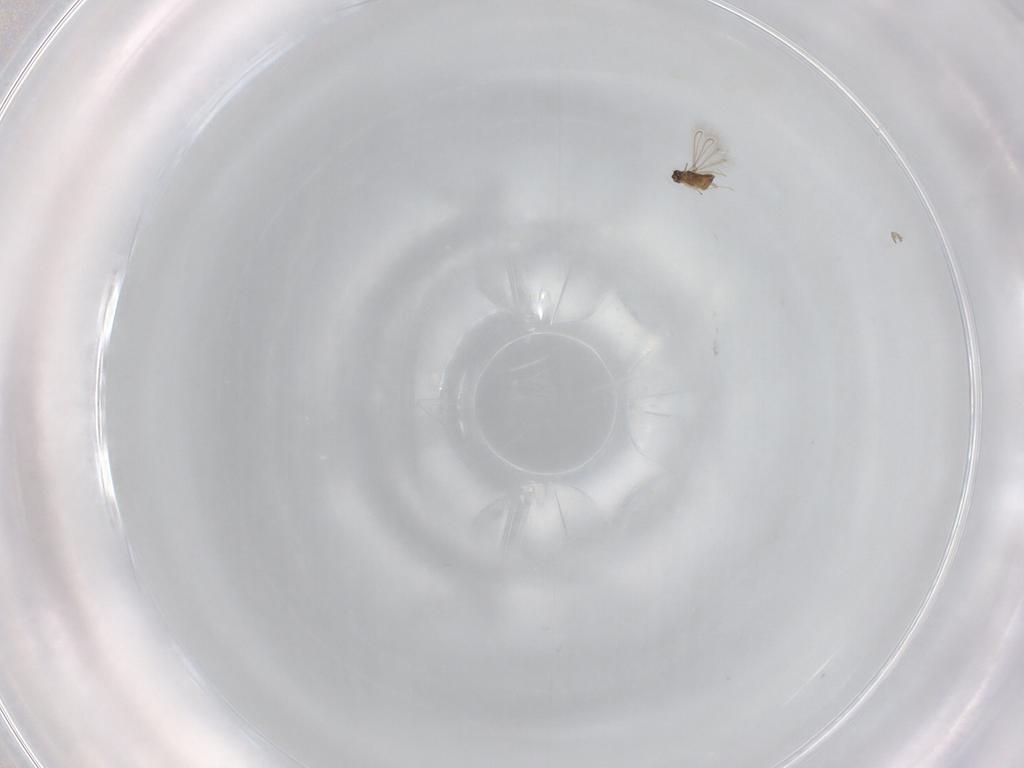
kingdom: Animalia
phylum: Arthropoda
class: Insecta
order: Hymenoptera
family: Mymaridae
